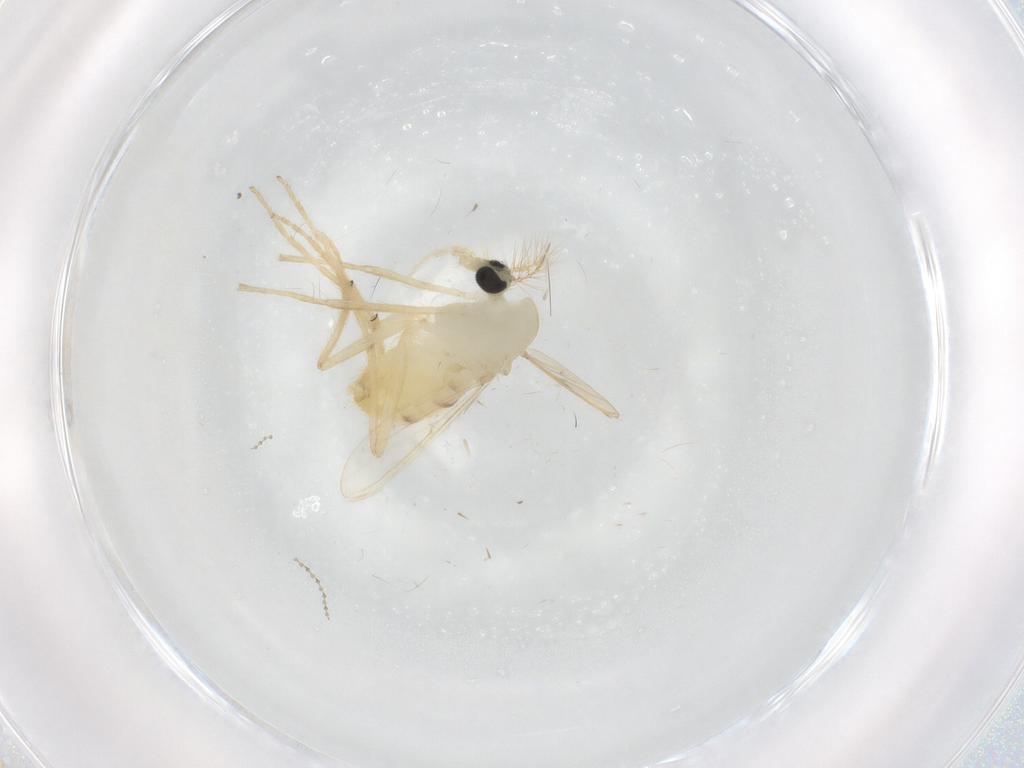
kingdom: Animalia
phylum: Arthropoda
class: Insecta
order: Diptera
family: Chironomidae
